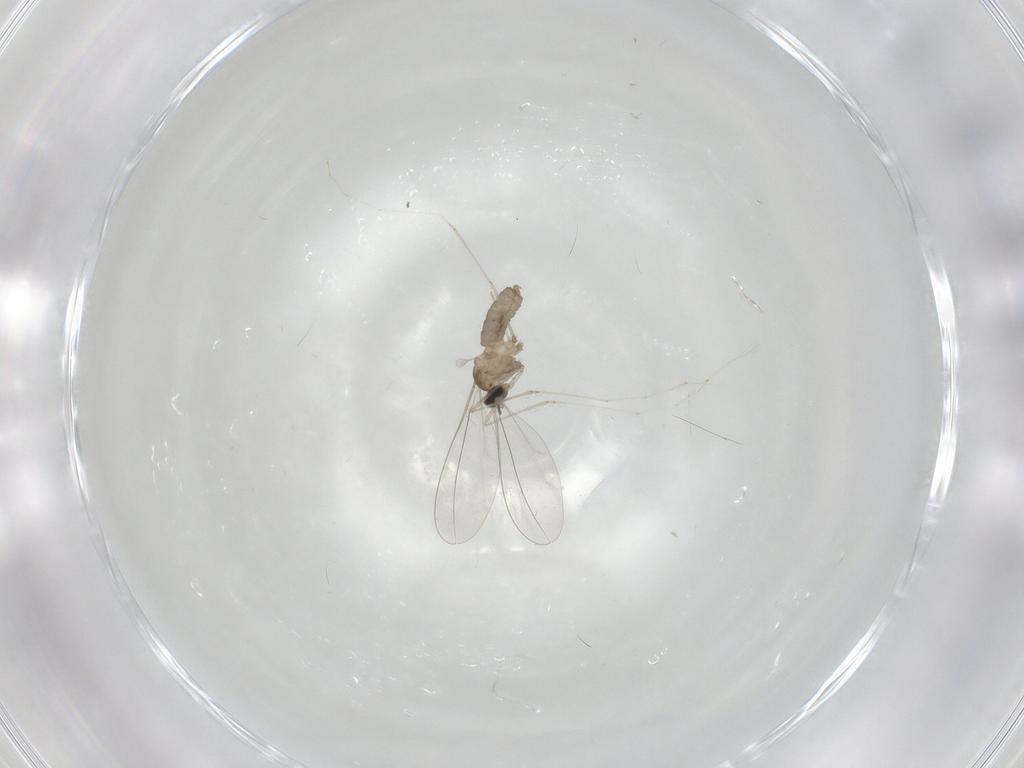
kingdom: Animalia
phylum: Arthropoda
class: Insecta
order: Diptera
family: Cecidomyiidae
